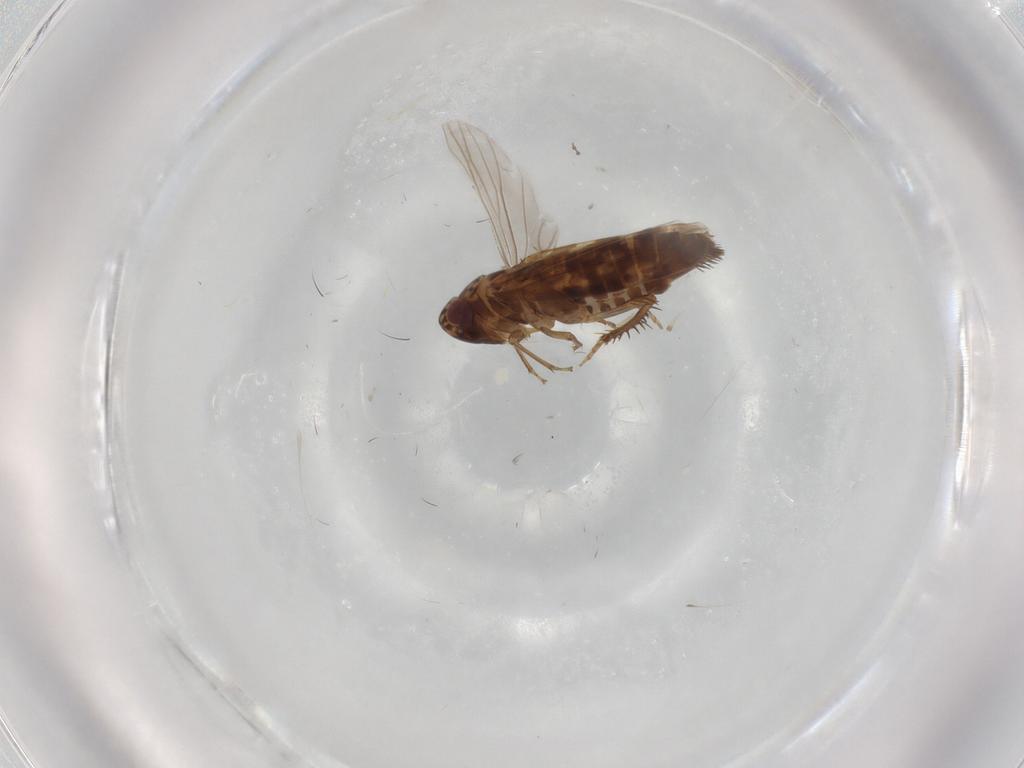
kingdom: Animalia
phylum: Arthropoda
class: Insecta
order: Hemiptera
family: Cicadellidae
